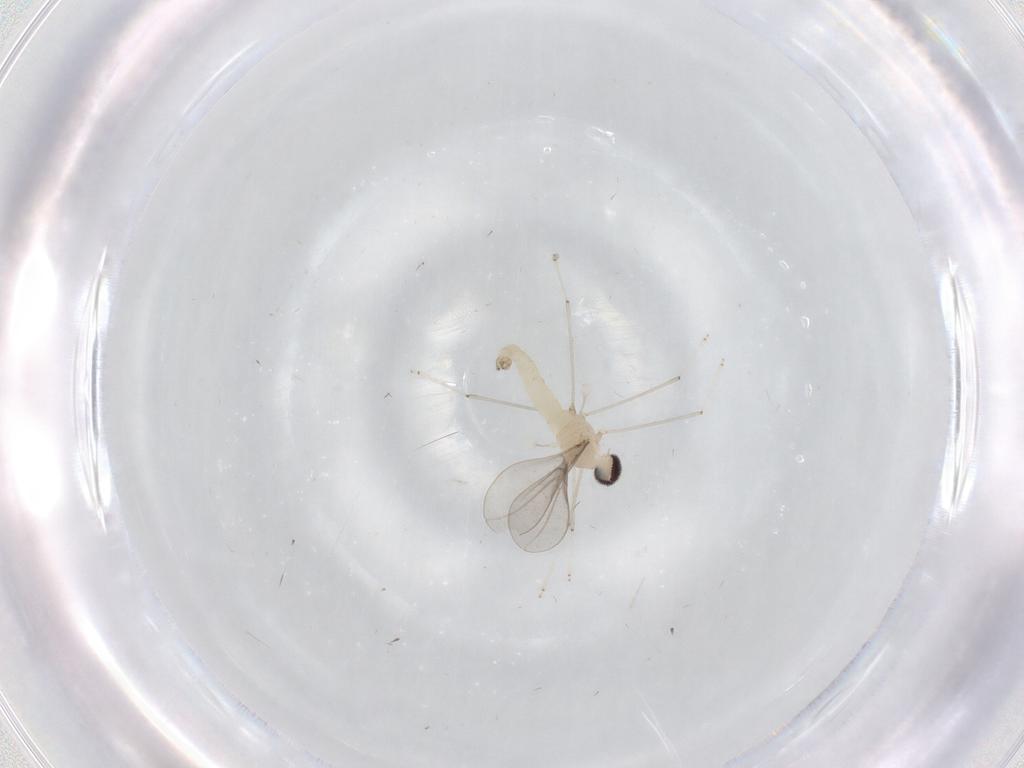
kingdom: Animalia
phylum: Arthropoda
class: Insecta
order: Diptera
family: Cecidomyiidae
